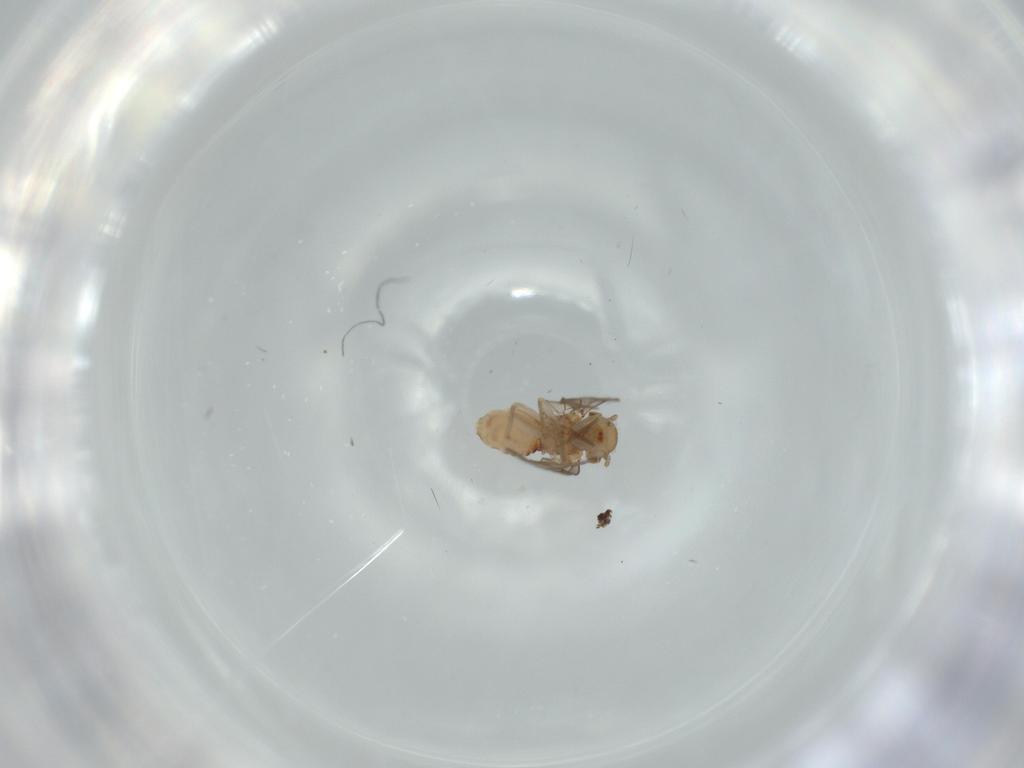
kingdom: Animalia
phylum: Arthropoda
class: Insecta
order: Psocodea
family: Ectopsocidae
